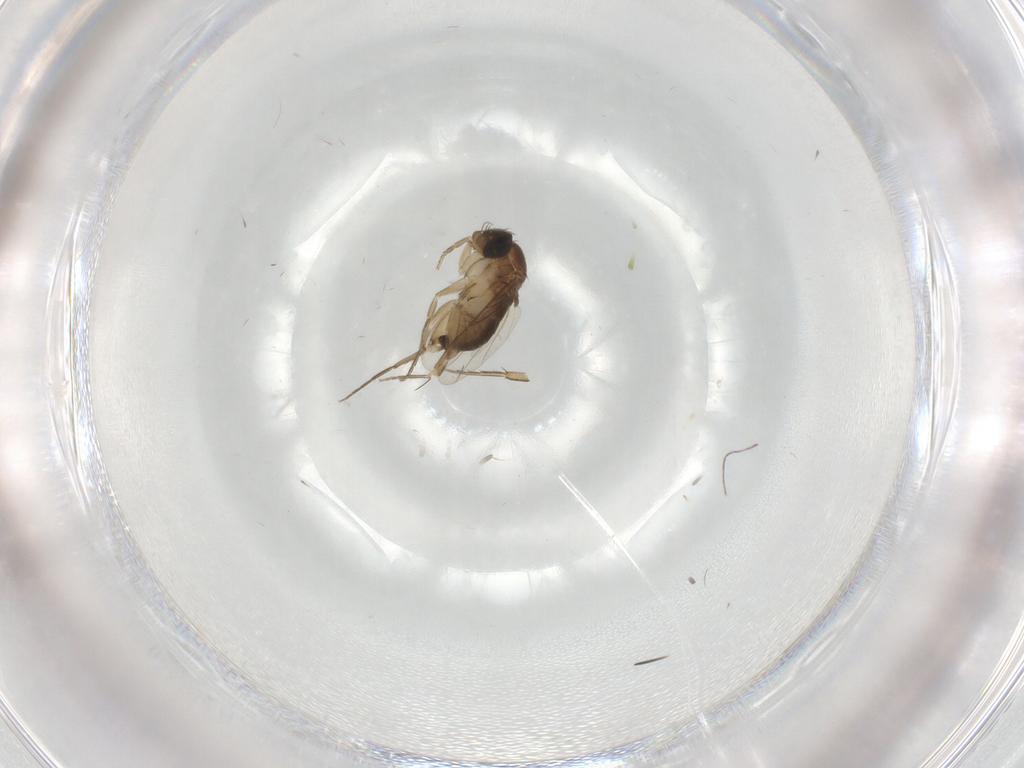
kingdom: Animalia
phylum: Arthropoda
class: Insecta
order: Diptera
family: Phoridae
